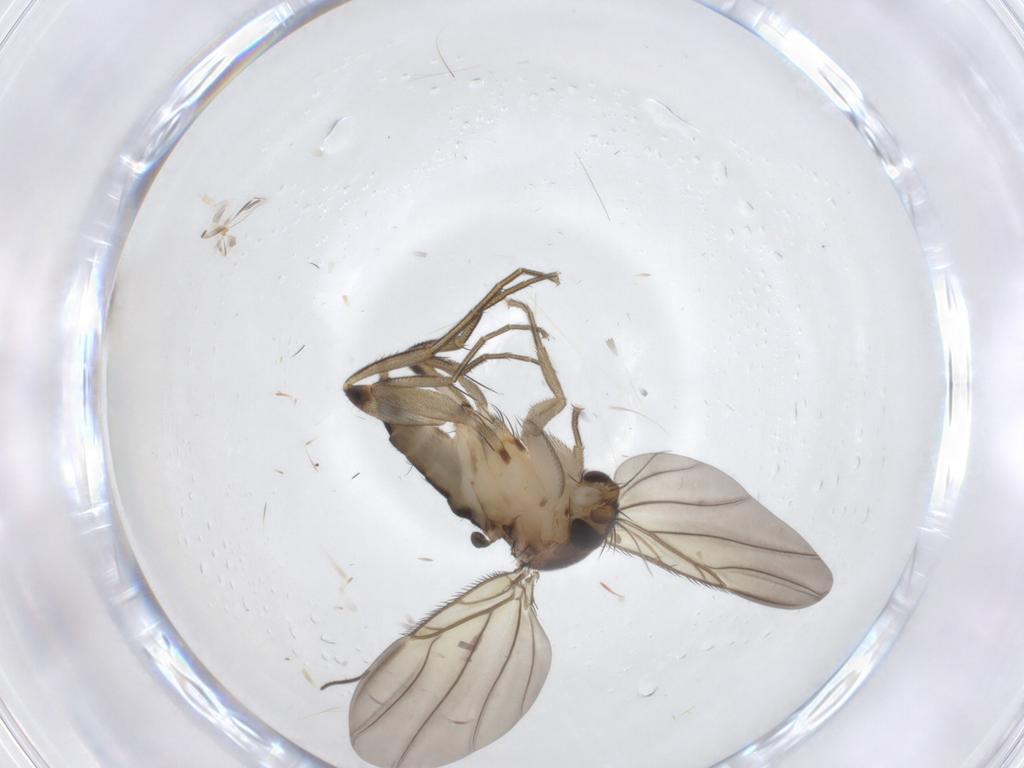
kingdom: Animalia
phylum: Arthropoda
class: Insecta
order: Diptera
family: Phoridae
